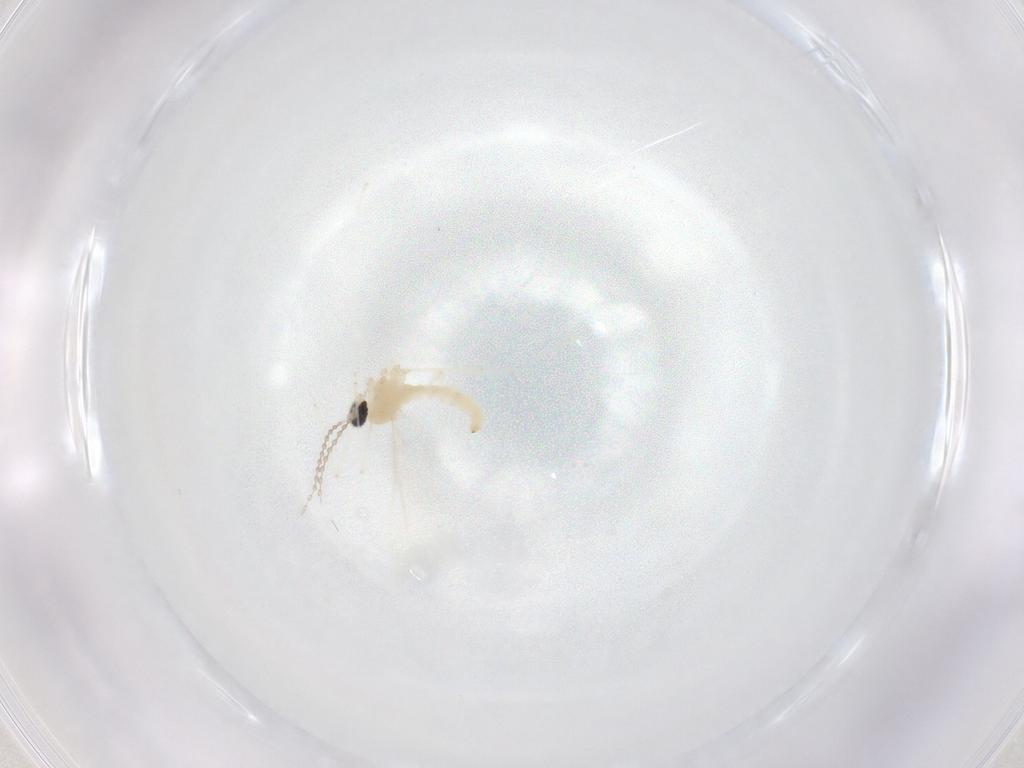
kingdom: Animalia
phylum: Arthropoda
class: Insecta
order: Diptera
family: Cecidomyiidae
